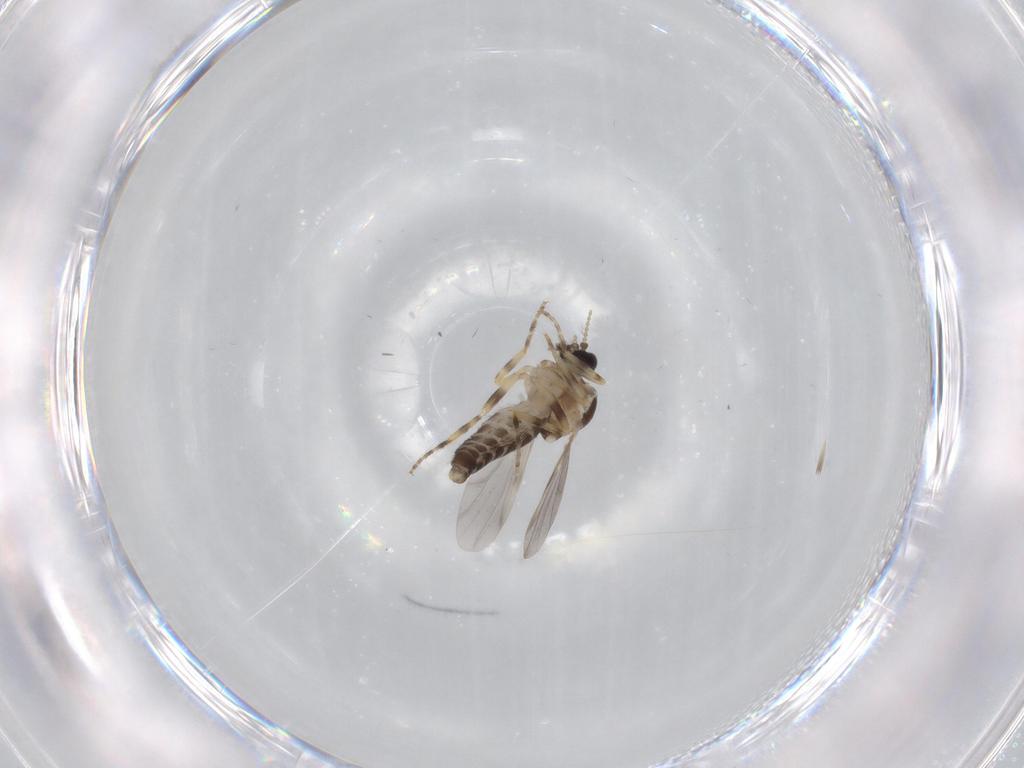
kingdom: Animalia
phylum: Arthropoda
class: Insecta
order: Diptera
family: Ceratopogonidae
